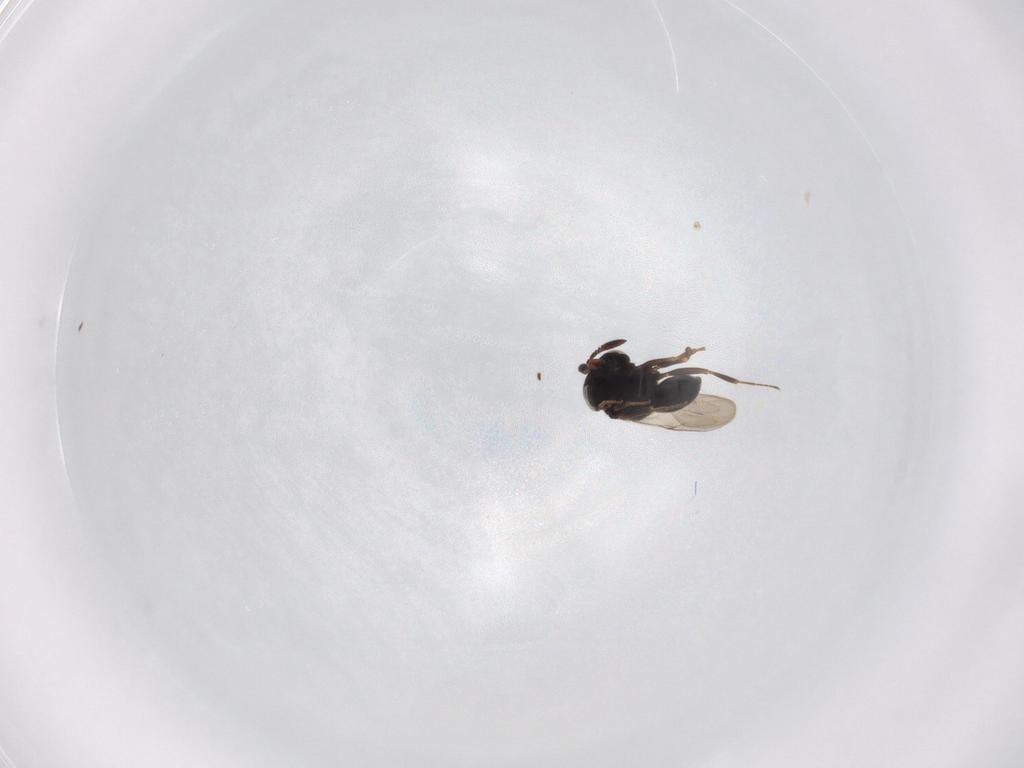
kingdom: Animalia
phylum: Arthropoda
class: Insecta
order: Hymenoptera
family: Scelionidae
